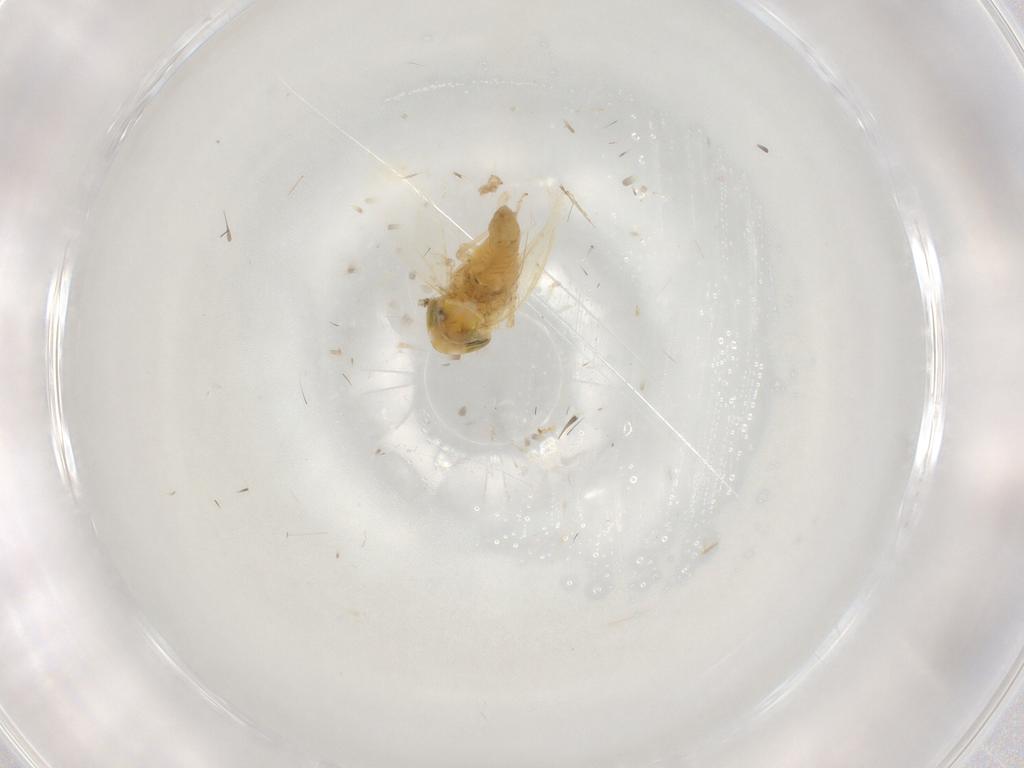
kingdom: Animalia
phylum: Arthropoda
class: Insecta
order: Hemiptera
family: Cicadellidae
